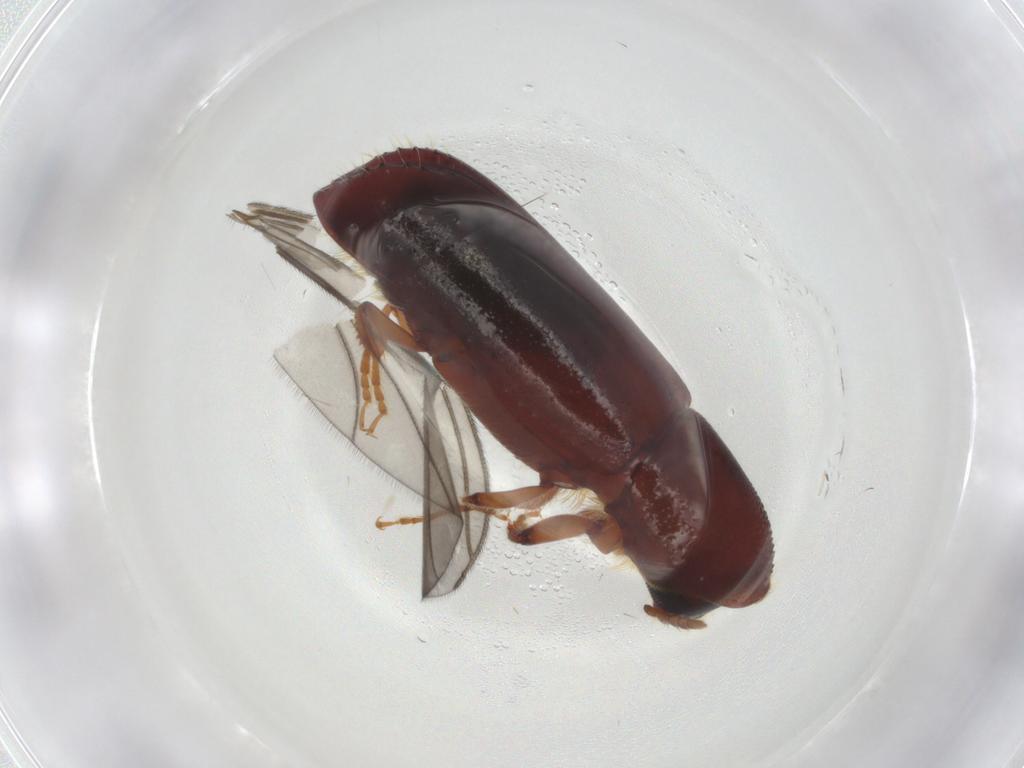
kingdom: Animalia
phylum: Arthropoda
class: Insecta
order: Coleoptera
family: Curculionidae
